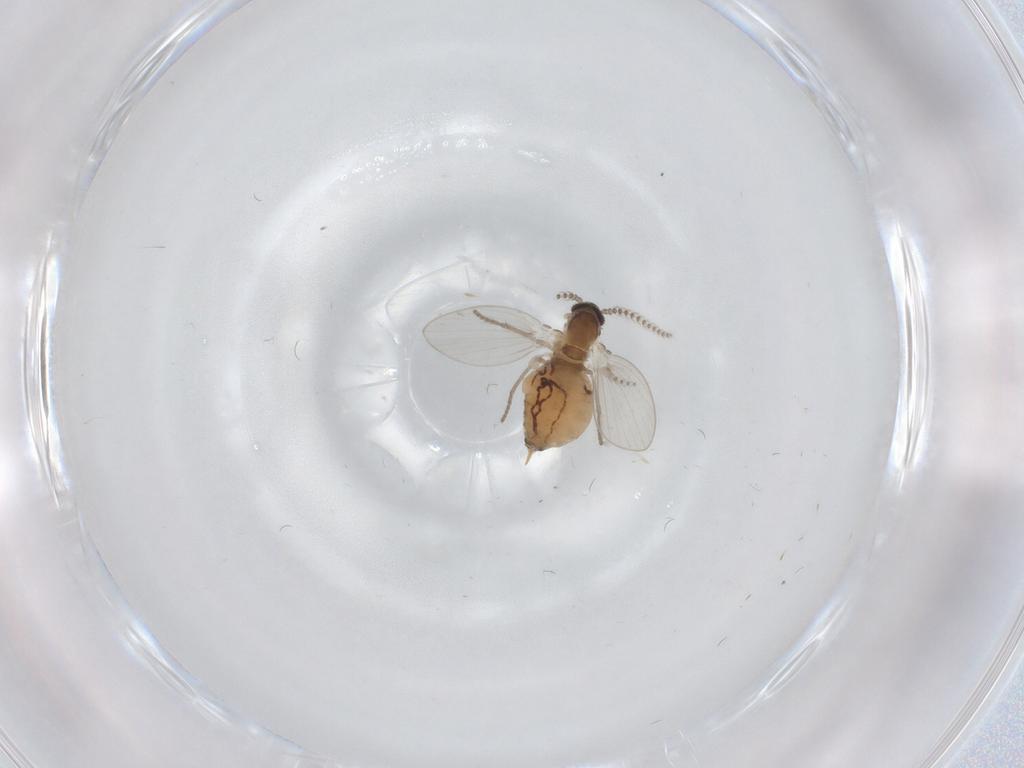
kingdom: Animalia
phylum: Arthropoda
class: Insecta
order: Diptera
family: Psychodidae
